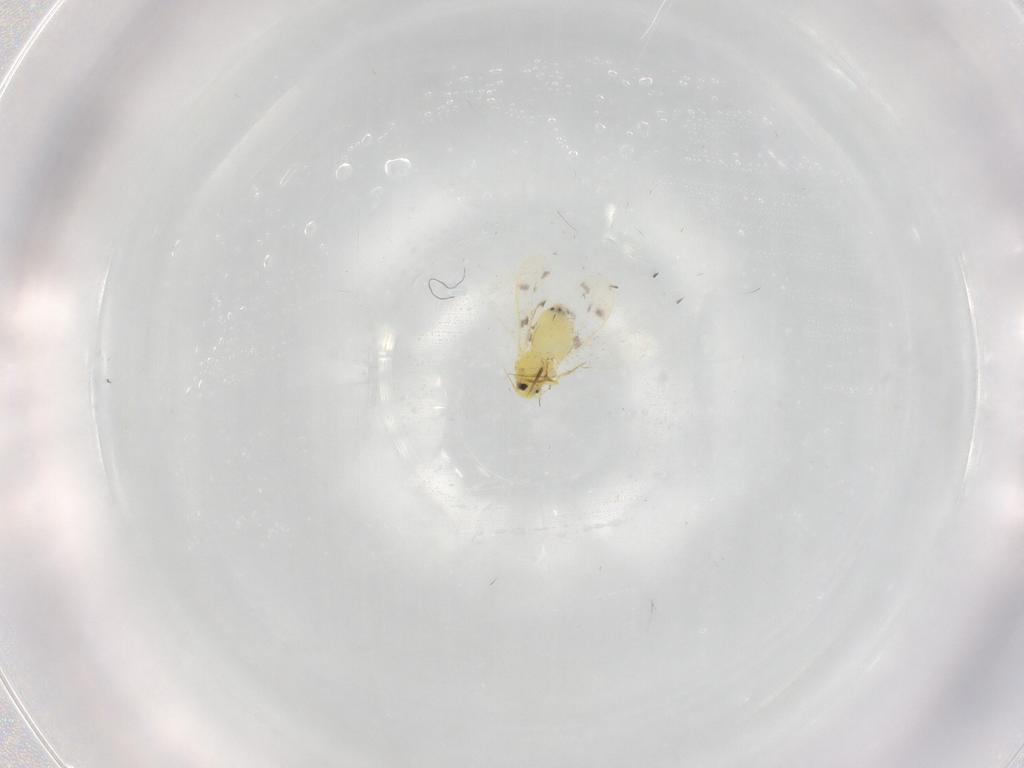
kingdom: Animalia
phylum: Arthropoda
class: Insecta
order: Hemiptera
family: Aleyrodidae
